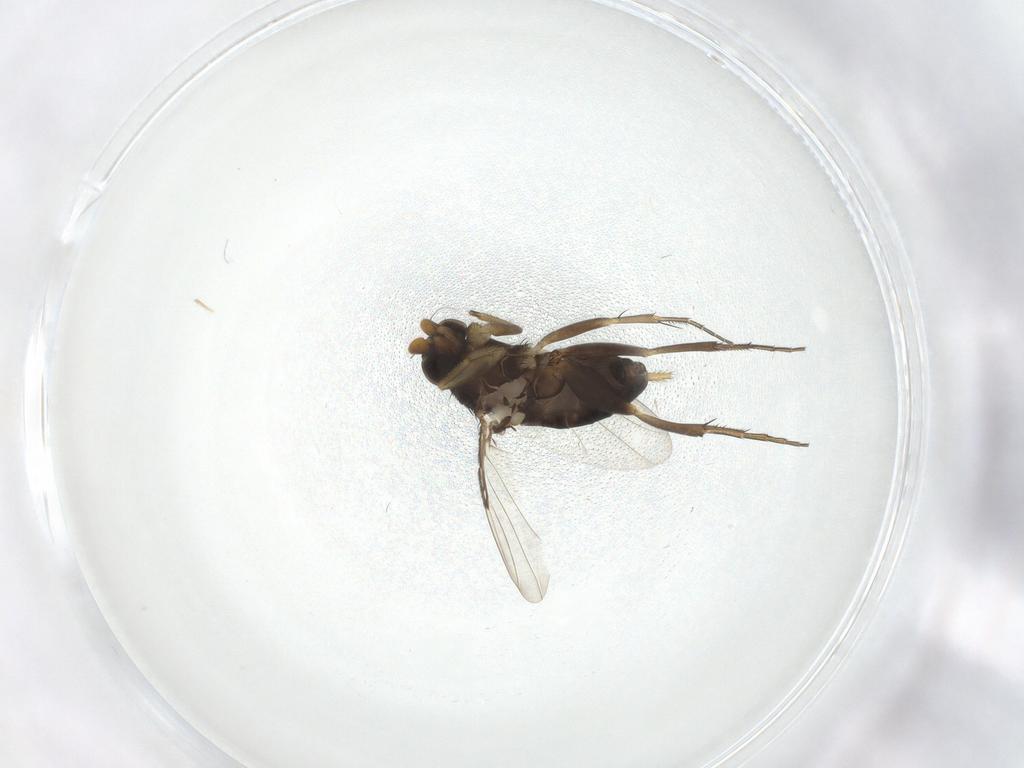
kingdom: Animalia
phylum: Arthropoda
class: Insecta
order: Diptera
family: Phoridae
